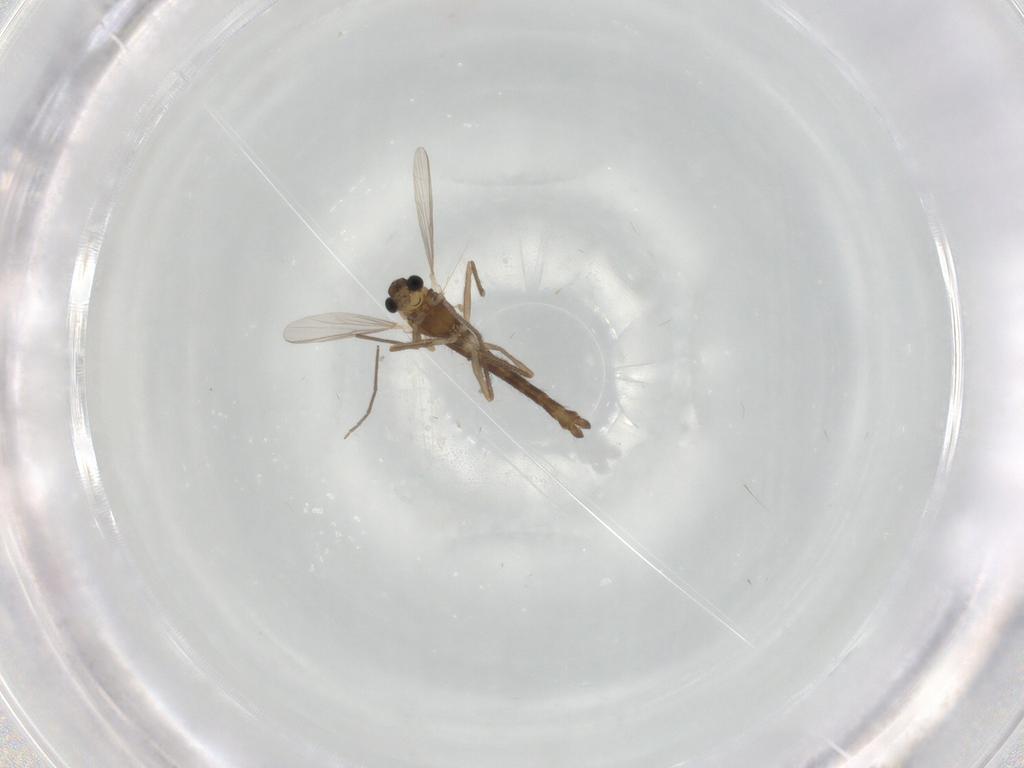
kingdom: Animalia
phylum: Arthropoda
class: Insecta
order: Diptera
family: Chironomidae
